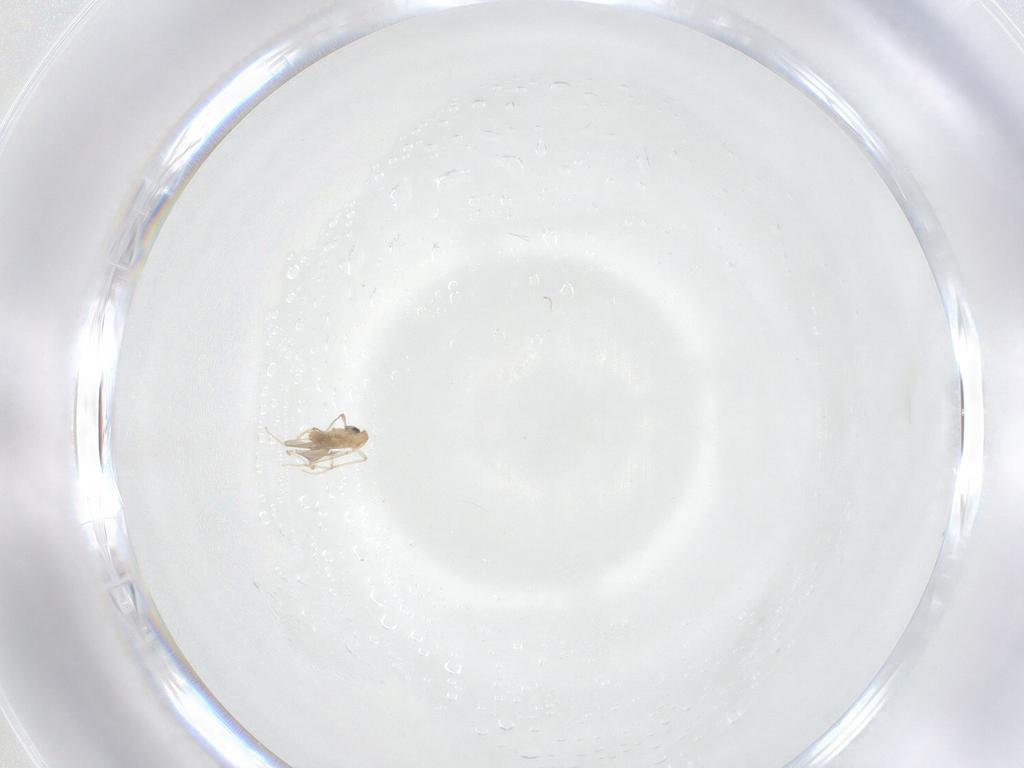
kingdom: Animalia
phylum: Arthropoda
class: Insecta
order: Diptera
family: Chironomidae
